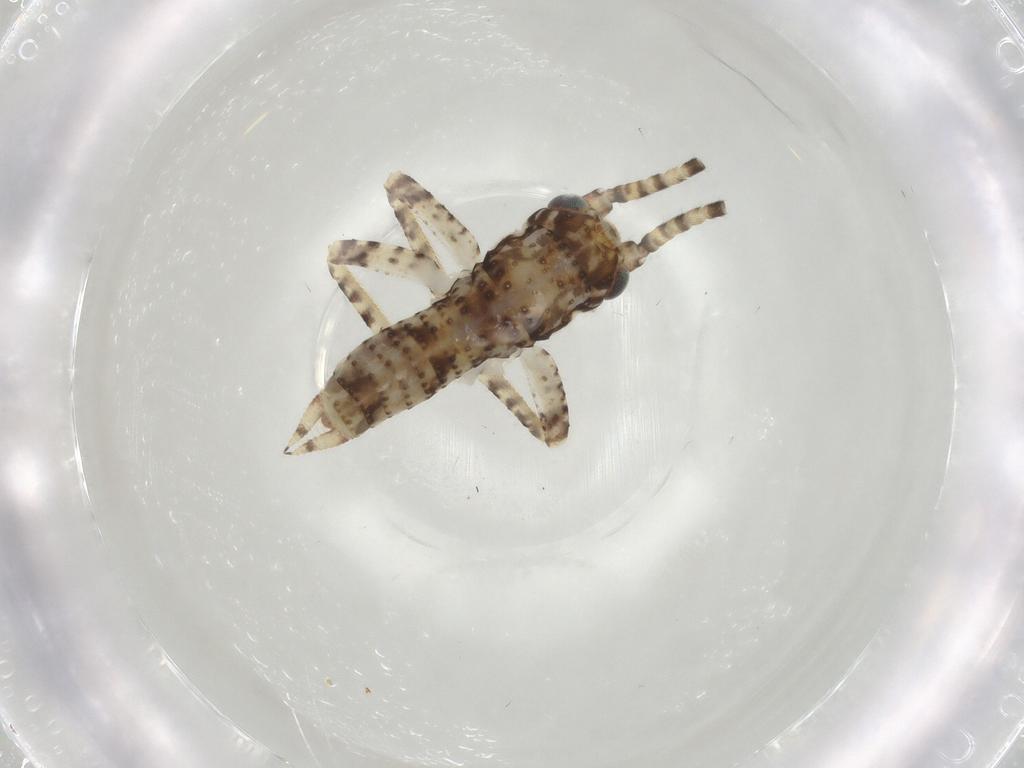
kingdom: Animalia
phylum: Arthropoda
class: Insecta
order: Orthoptera
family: Gryllidae
